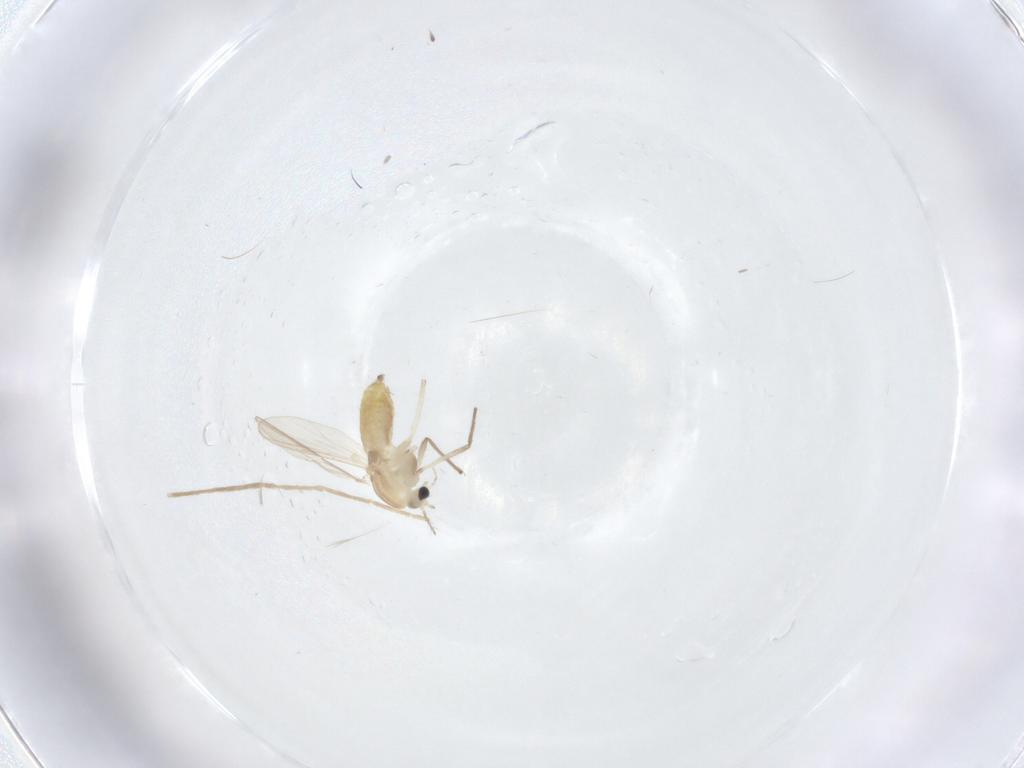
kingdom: Animalia
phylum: Arthropoda
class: Insecta
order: Diptera
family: Chironomidae
